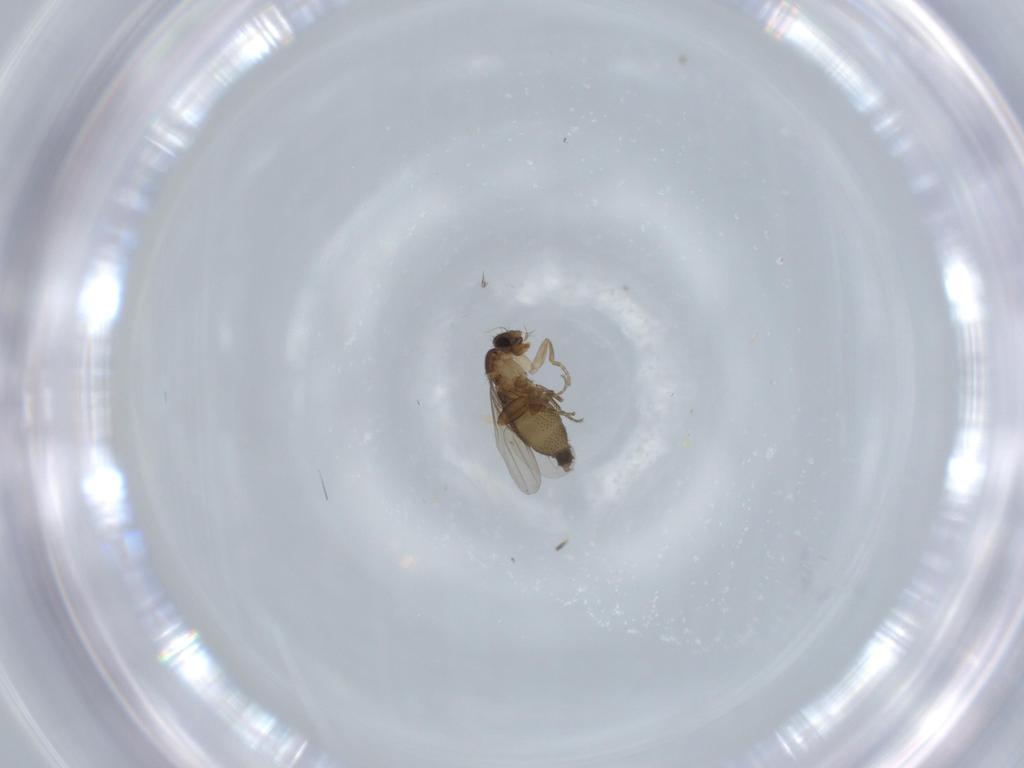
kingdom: Animalia
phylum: Arthropoda
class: Insecta
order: Diptera
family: Phoridae
